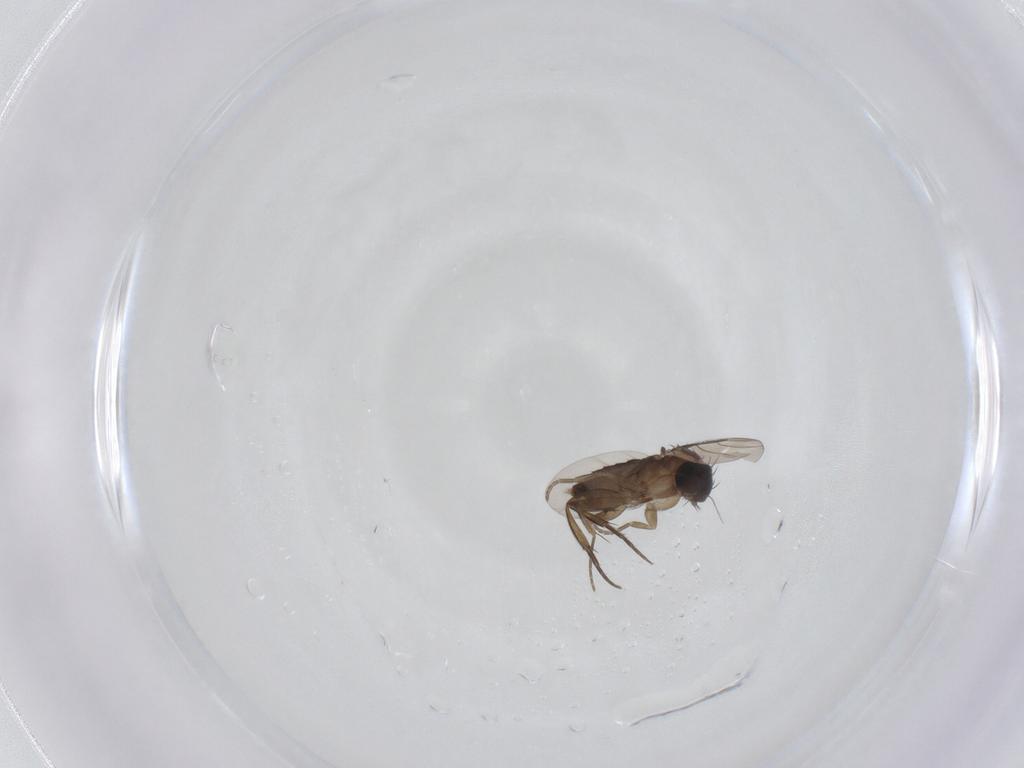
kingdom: Animalia
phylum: Arthropoda
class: Insecta
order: Diptera
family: Phoridae
